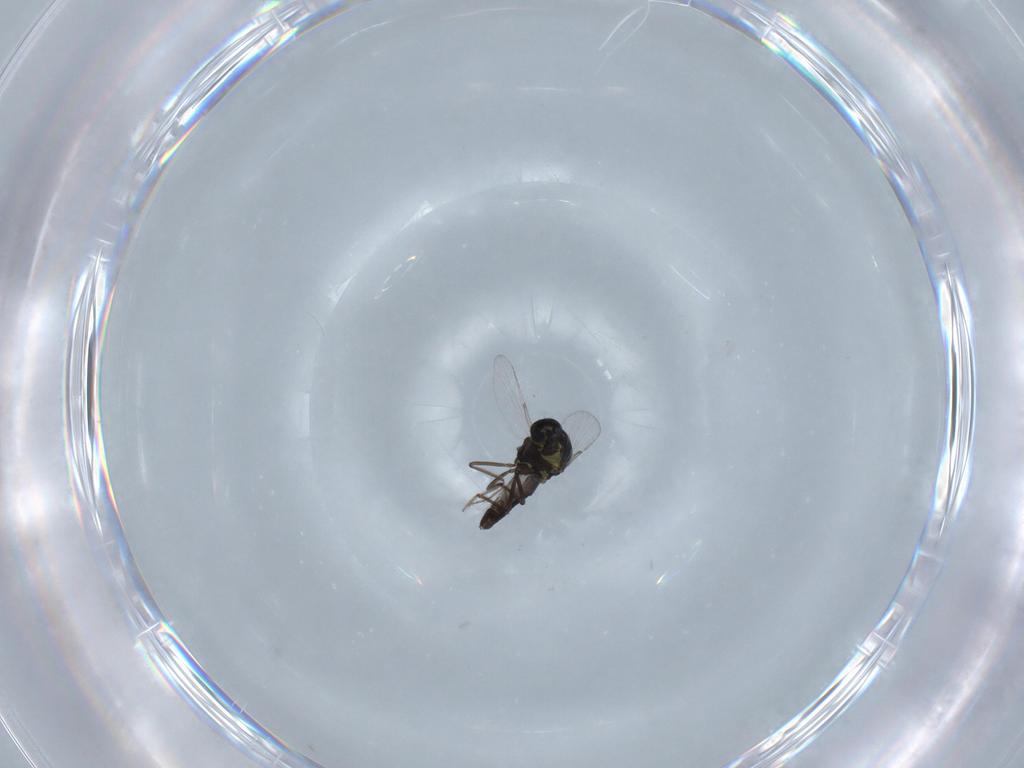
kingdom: Animalia
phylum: Arthropoda
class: Insecta
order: Diptera
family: Ceratopogonidae
